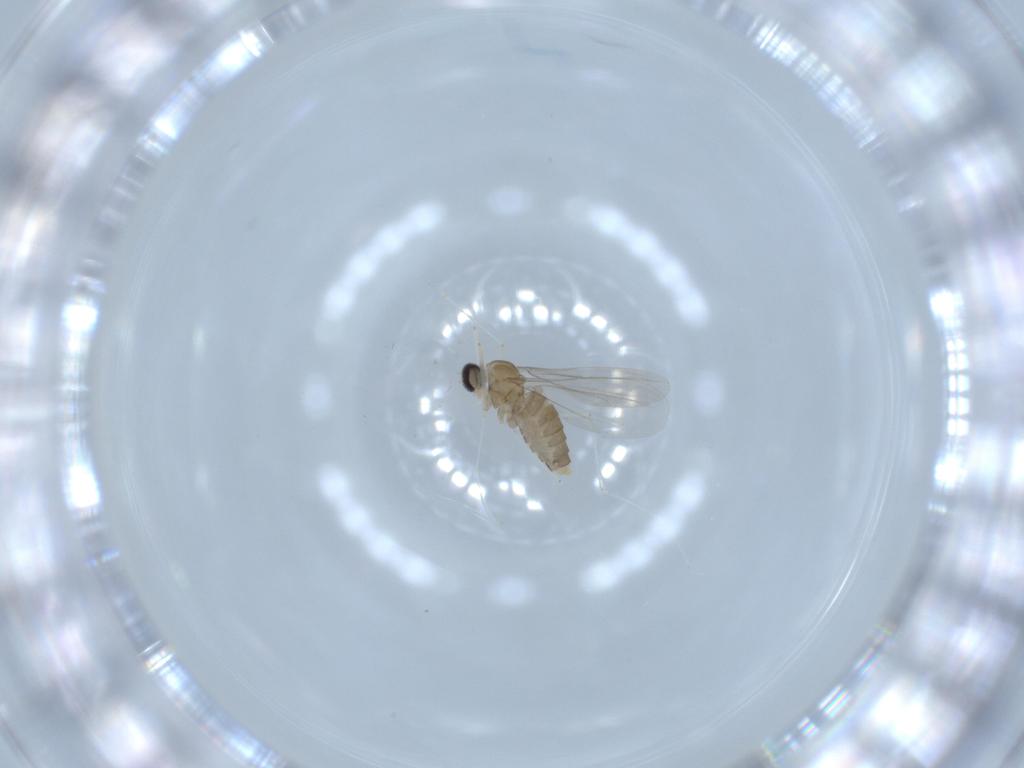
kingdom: Animalia
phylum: Arthropoda
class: Insecta
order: Diptera
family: Cecidomyiidae
